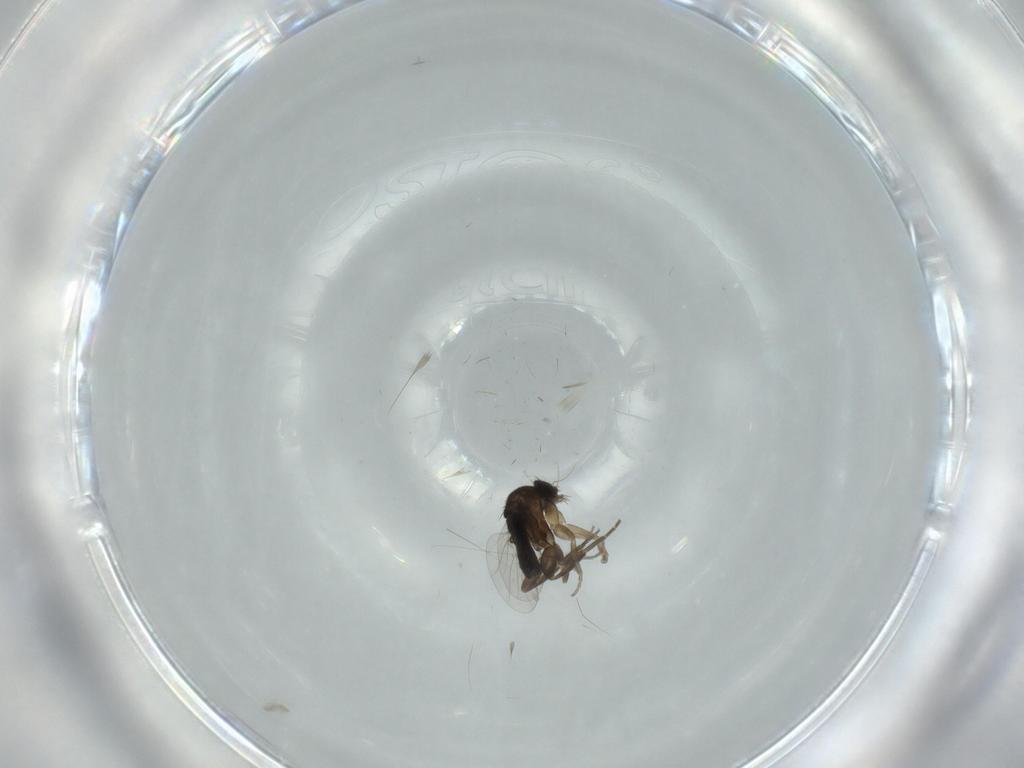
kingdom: Animalia
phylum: Arthropoda
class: Insecta
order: Diptera
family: Phoridae
